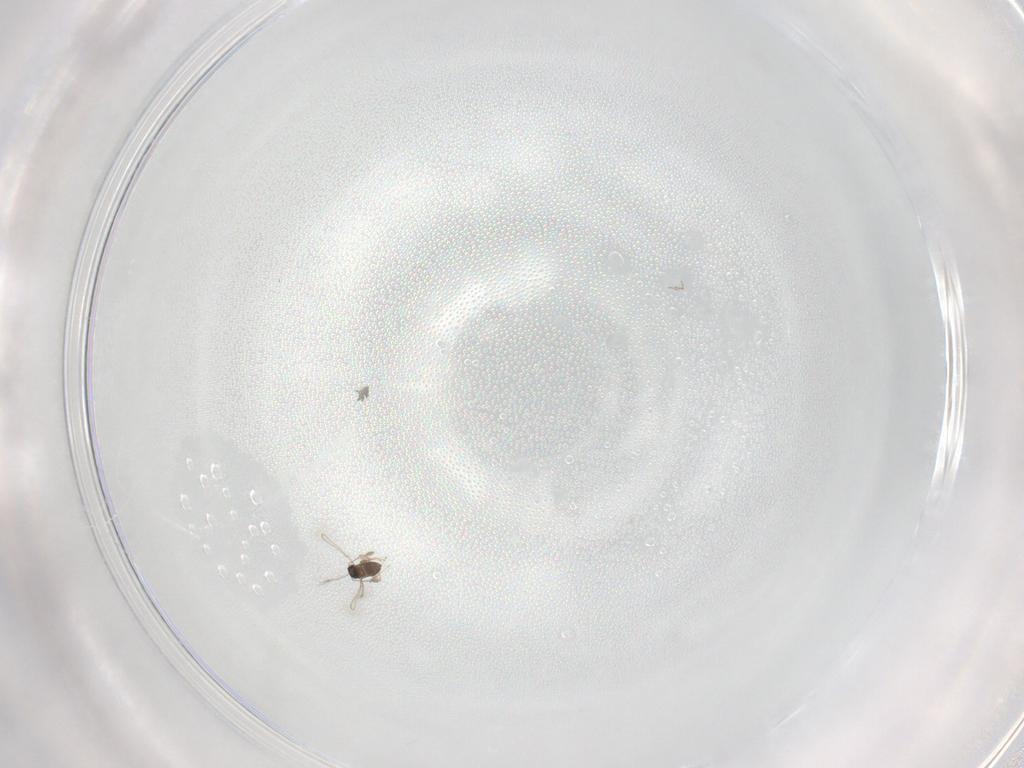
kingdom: Animalia
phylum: Arthropoda
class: Insecta
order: Hymenoptera
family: Mymaridae
